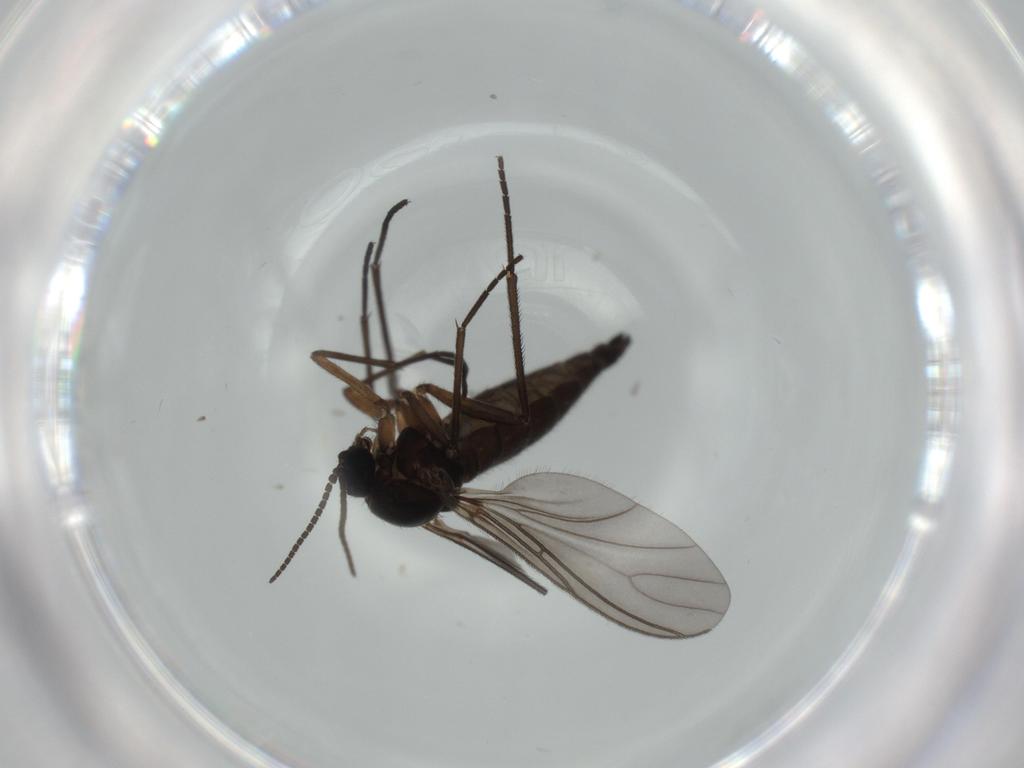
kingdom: Animalia
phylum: Arthropoda
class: Insecta
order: Diptera
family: Sciaridae
